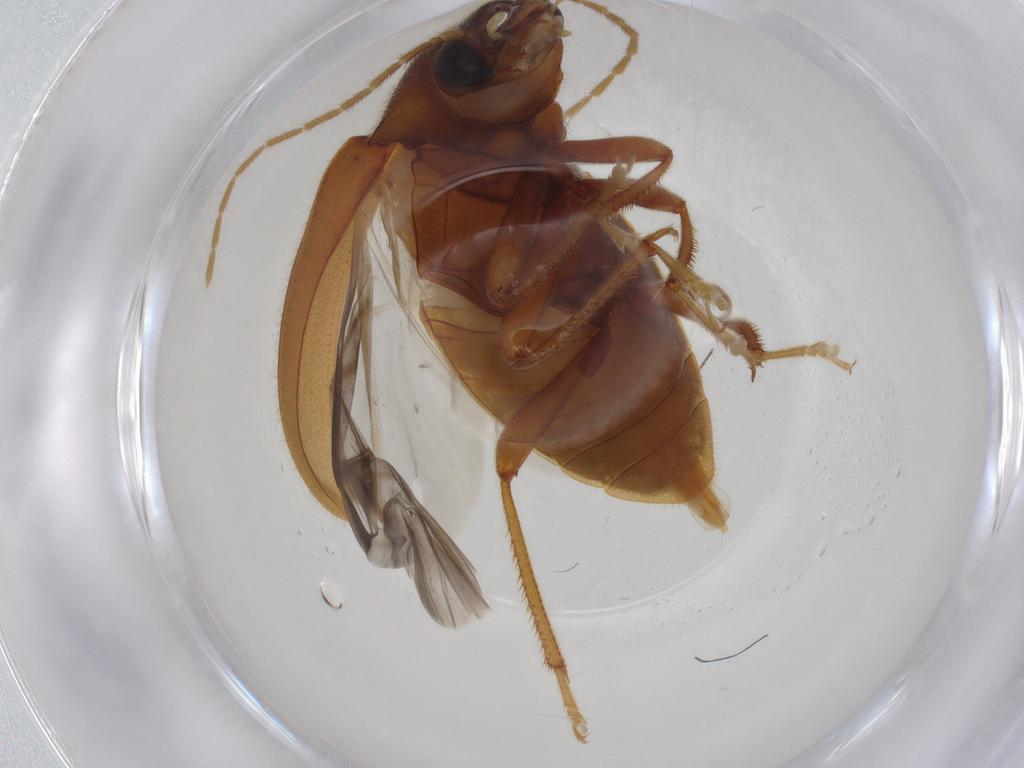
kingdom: Animalia
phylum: Arthropoda
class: Insecta
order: Coleoptera
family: Ptilodactylidae
